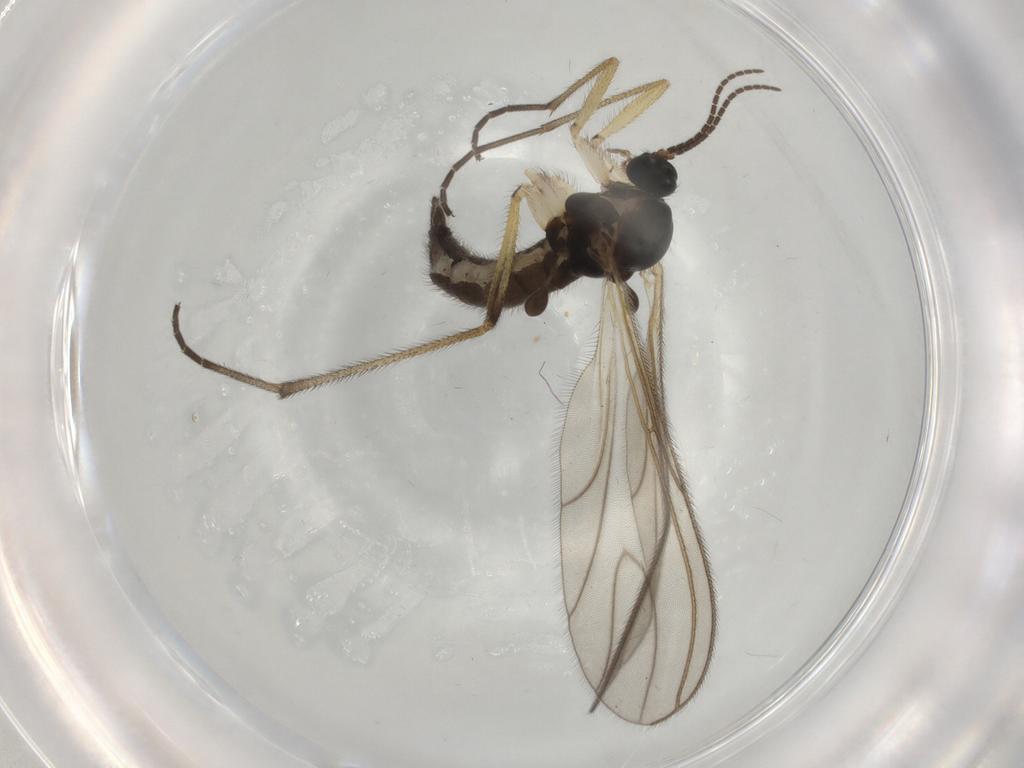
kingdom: Animalia
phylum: Arthropoda
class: Insecta
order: Diptera
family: Sciaridae
